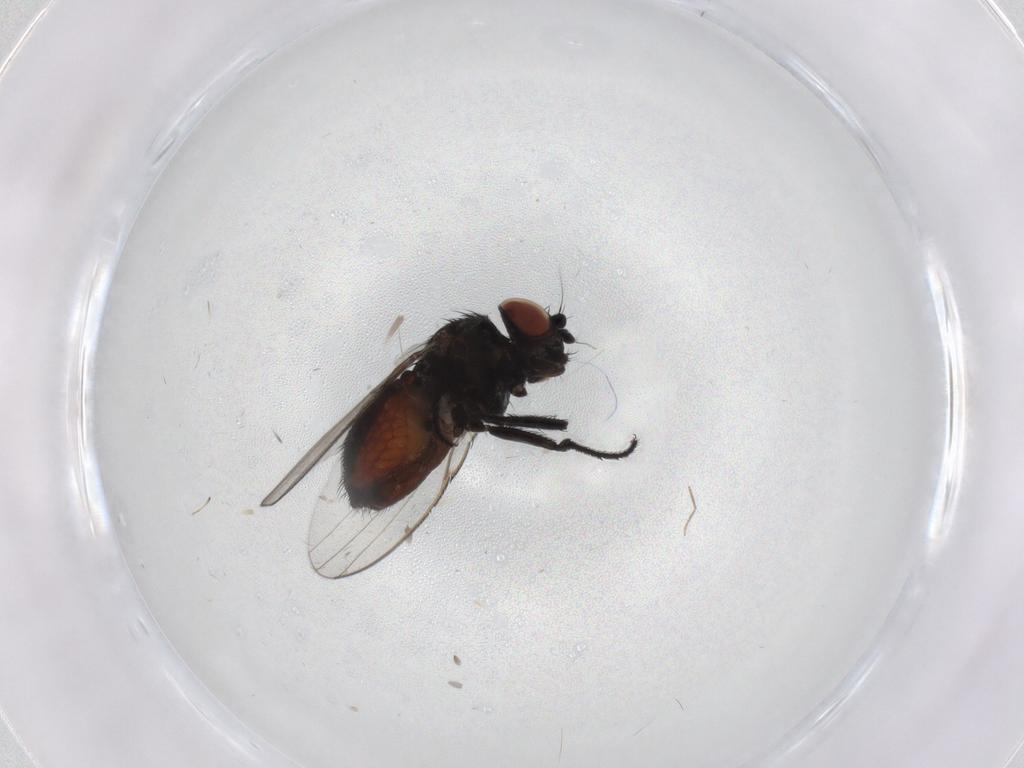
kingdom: Animalia
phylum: Arthropoda
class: Insecta
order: Diptera
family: Milichiidae
